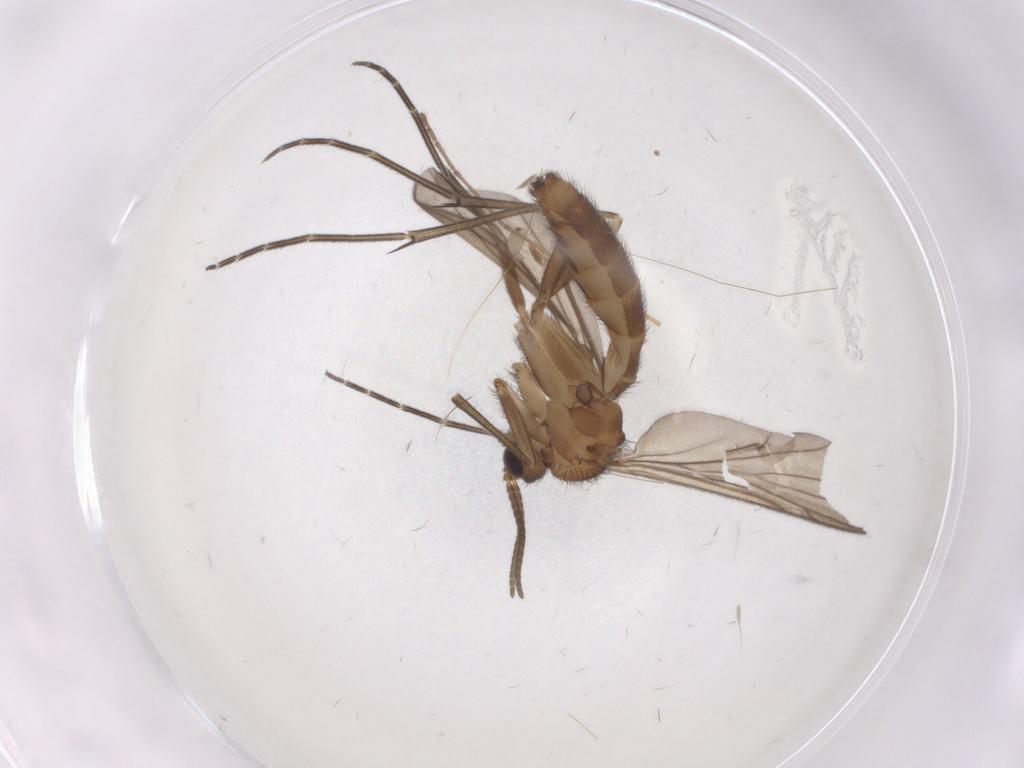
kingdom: Animalia
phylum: Arthropoda
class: Insecta
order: Diptera
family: Keroplatidae
